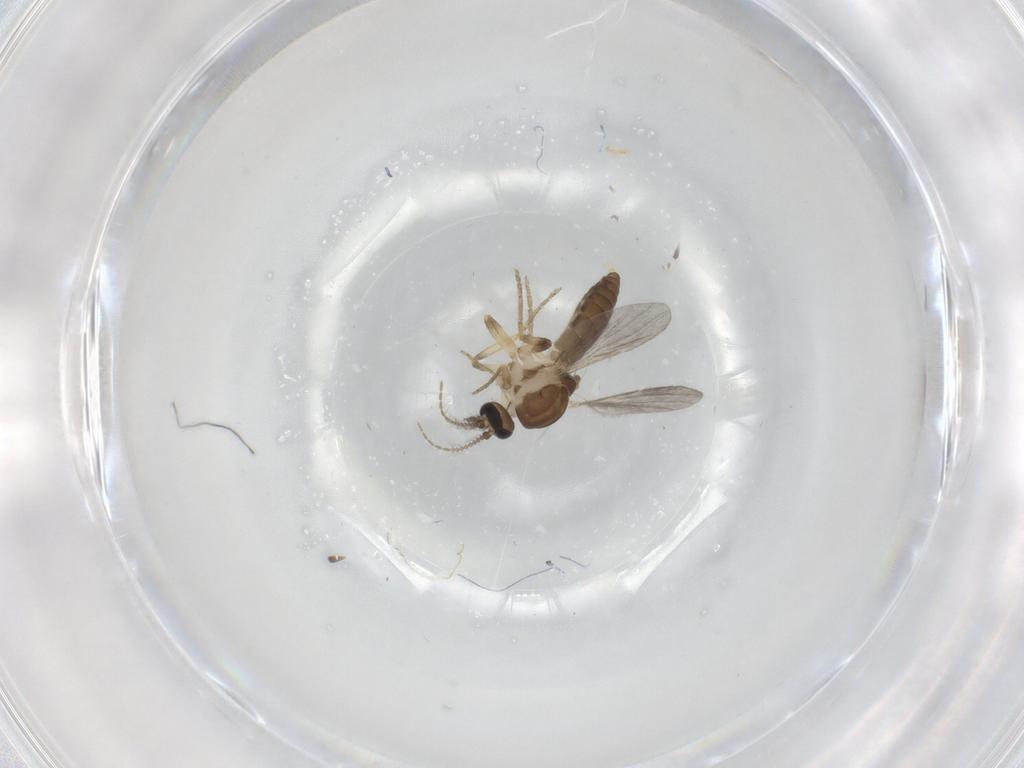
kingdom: Animalia
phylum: Arthropoda
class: Insecta
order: Diptera
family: Ceratopogonidae
